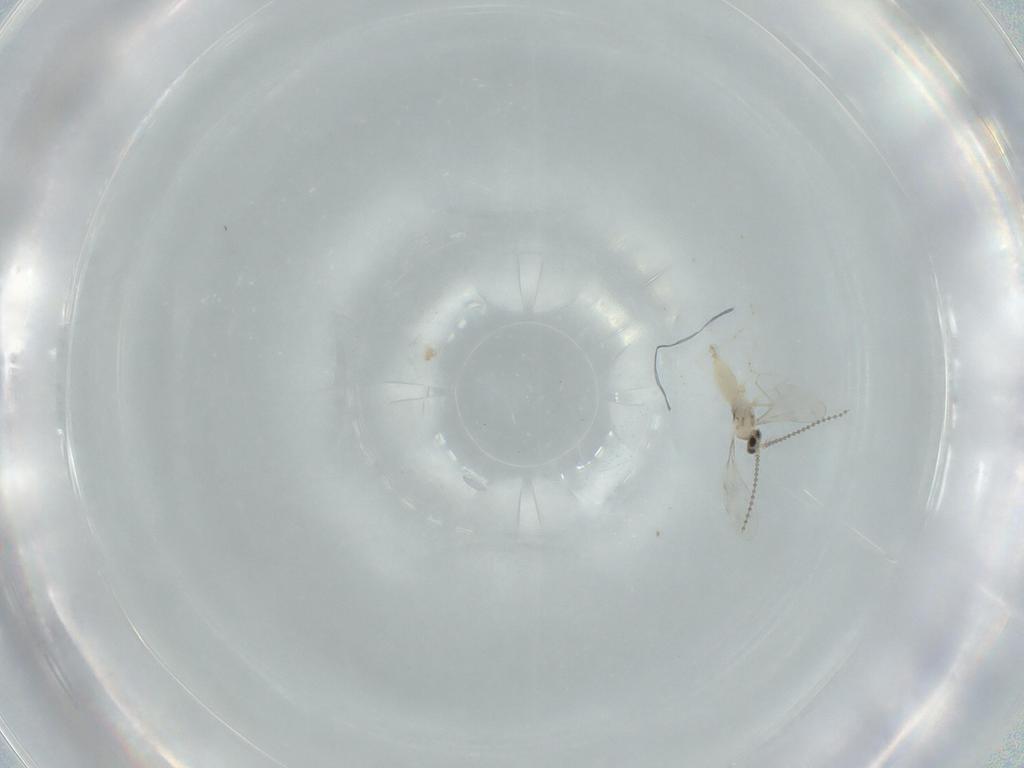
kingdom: Animalia
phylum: Arthropoda
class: Insecta
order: Diptera
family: Cecidomyiidae
